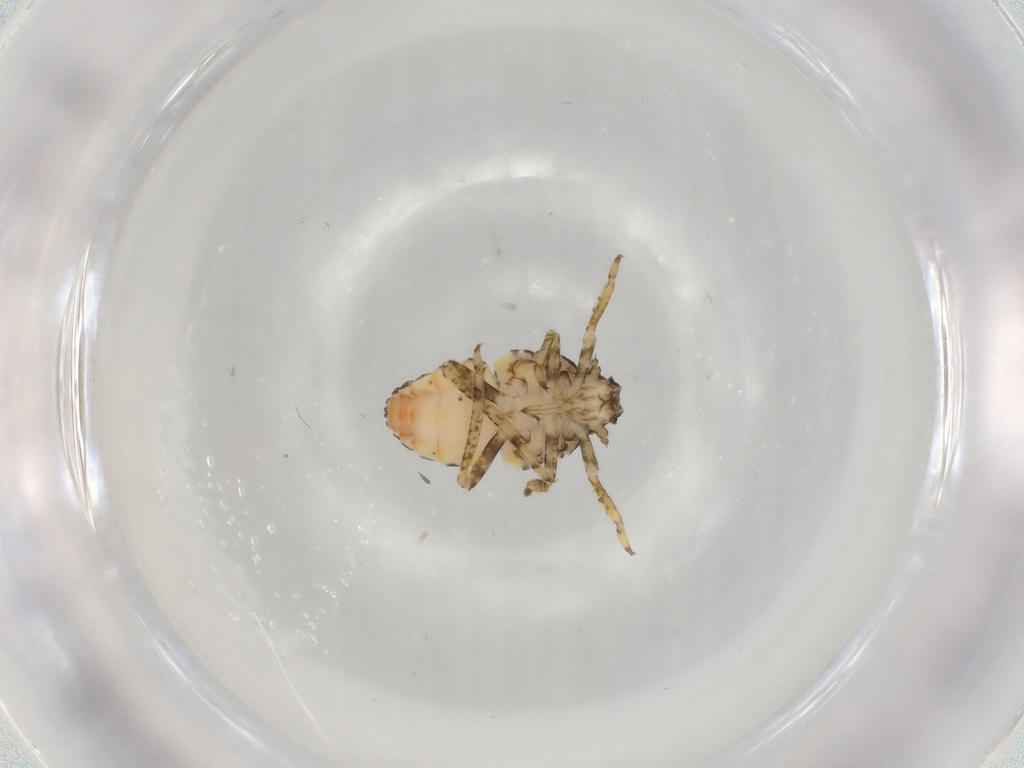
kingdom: Animalia
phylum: Arthropoda
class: Insecta
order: Hemiptera
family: Issidae
